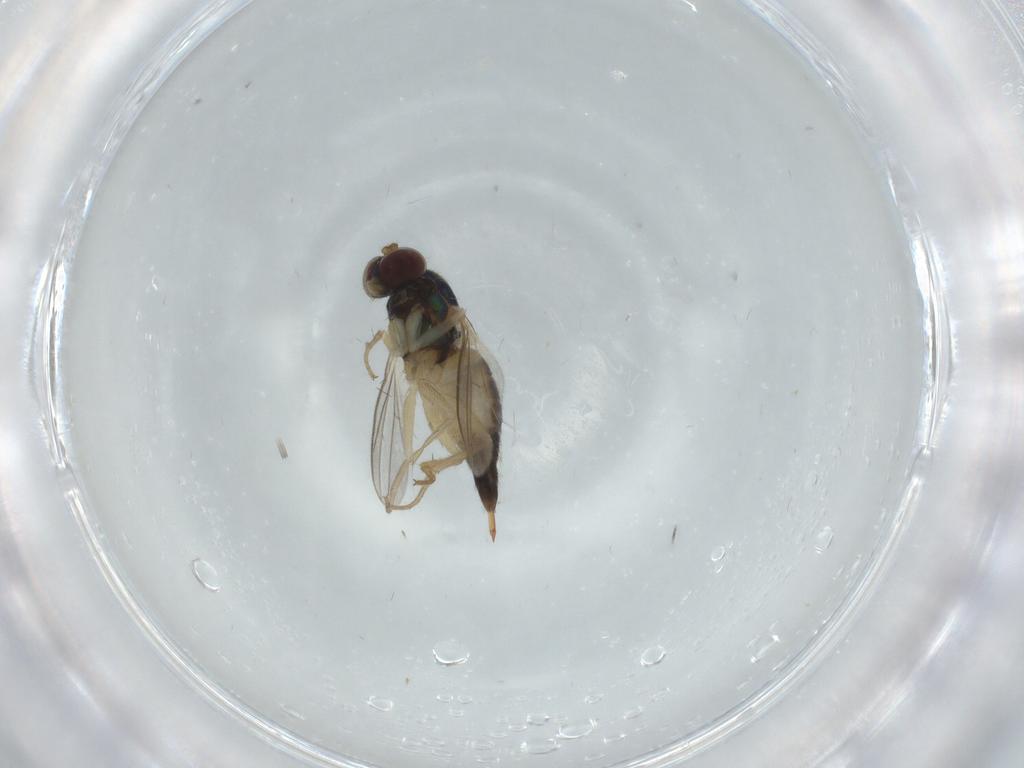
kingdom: Animalia
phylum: Arthropoda
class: Insecta
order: Diptera
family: Dolichopodidae
